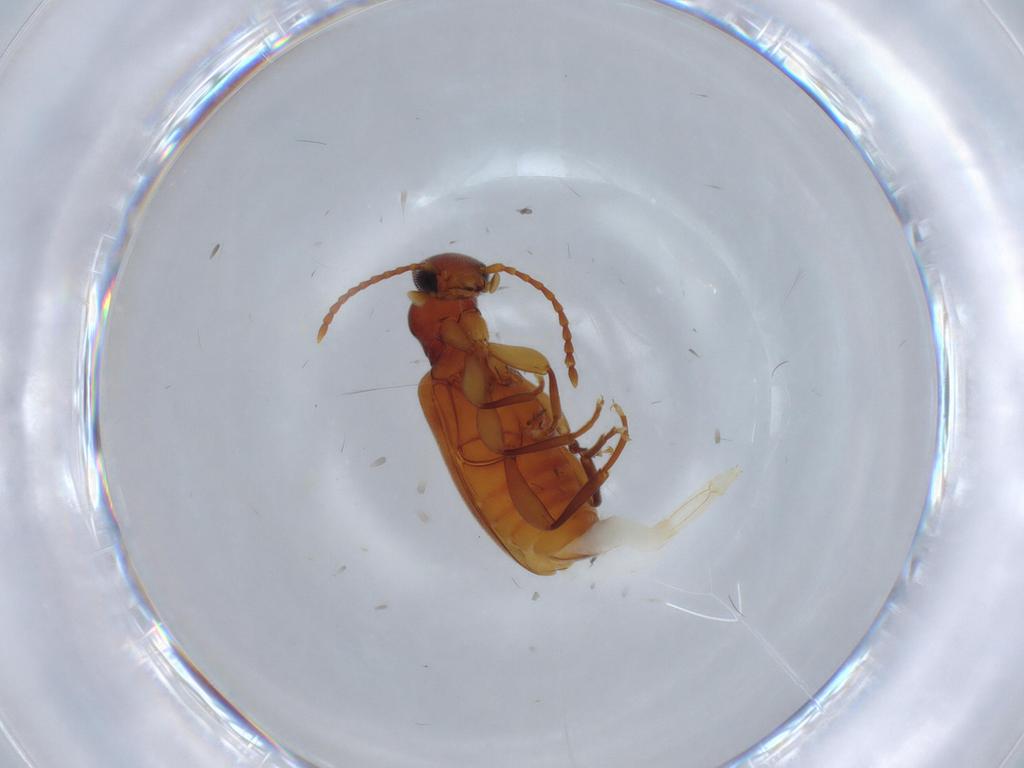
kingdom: Animalia
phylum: Arthropoda
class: Insecta
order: Coleoptera
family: Anthicidae
